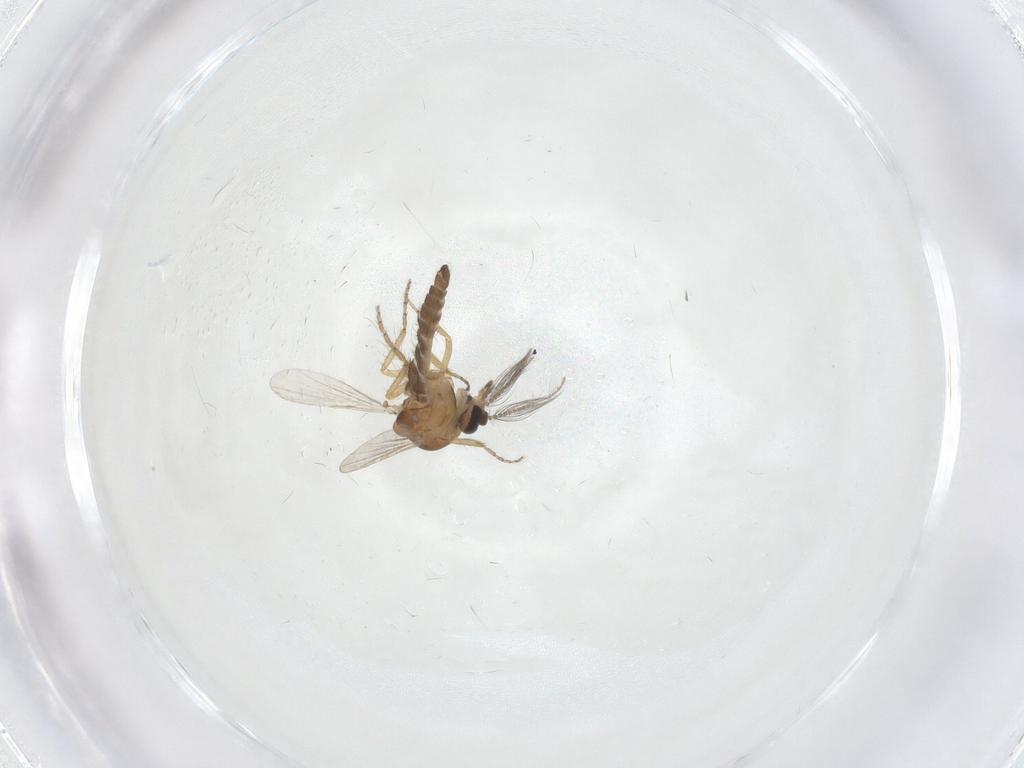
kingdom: Animalia
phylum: Arthropoda
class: Insecta
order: Diptera
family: Ceratopogonidae
